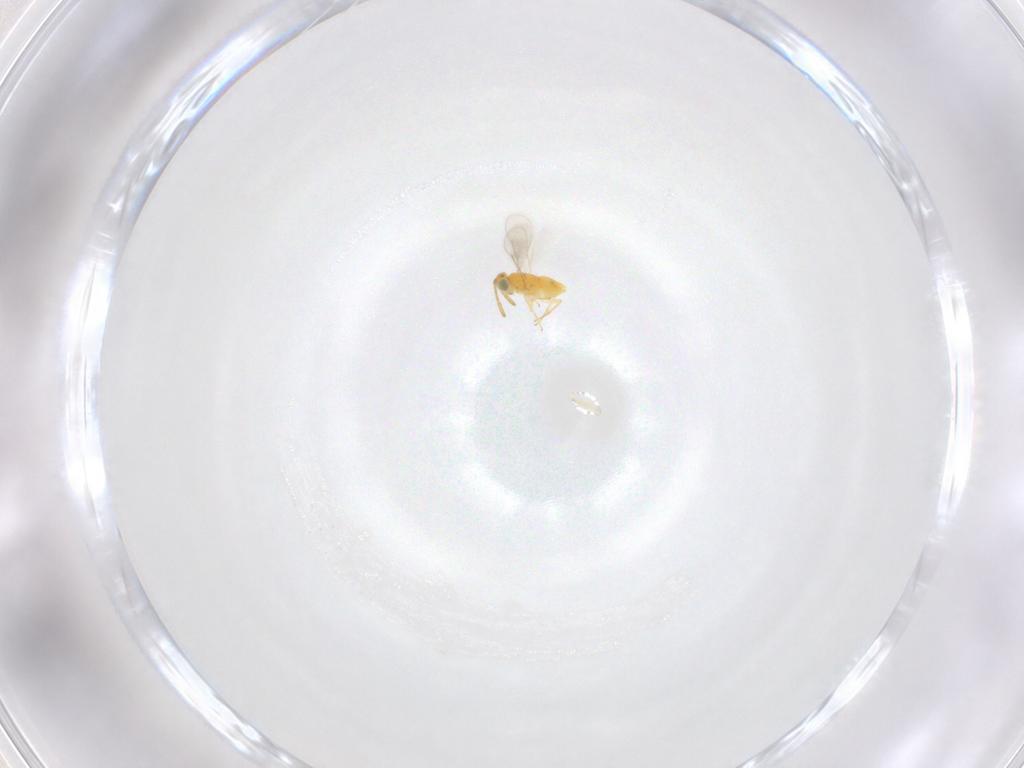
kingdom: Animalia
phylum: Arthropoda
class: Insecta
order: Hymenoptera
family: Aphelinidae
